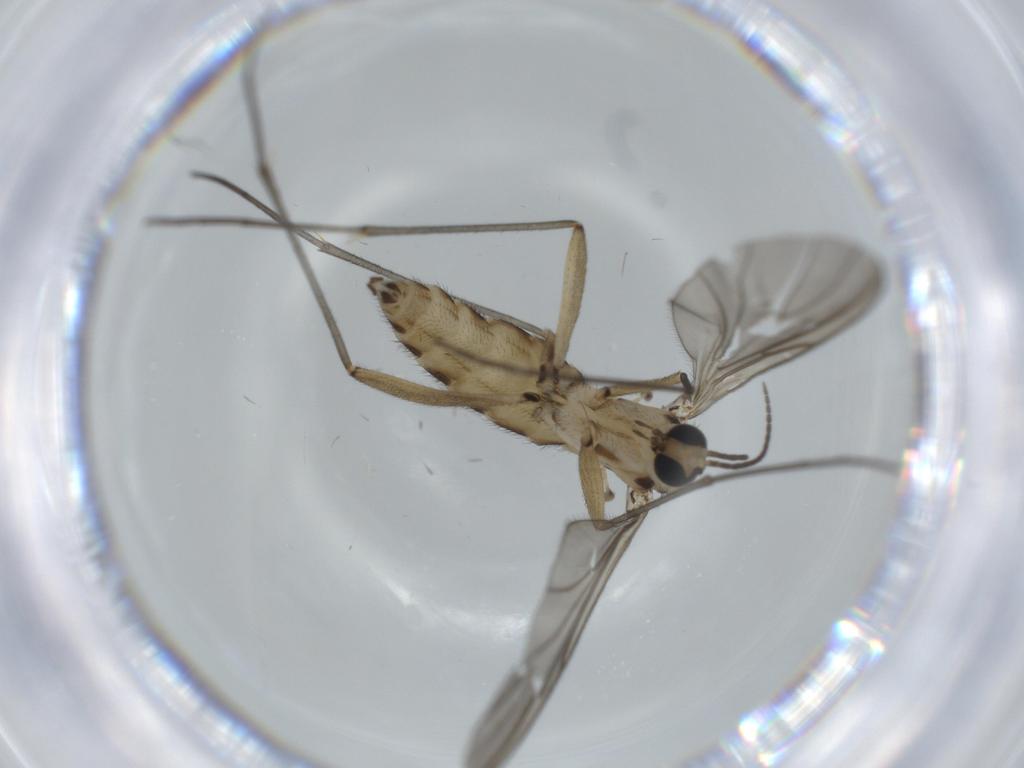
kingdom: Animalia
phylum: Arthropoda
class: Insecta
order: Diptera
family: Sciaridae
